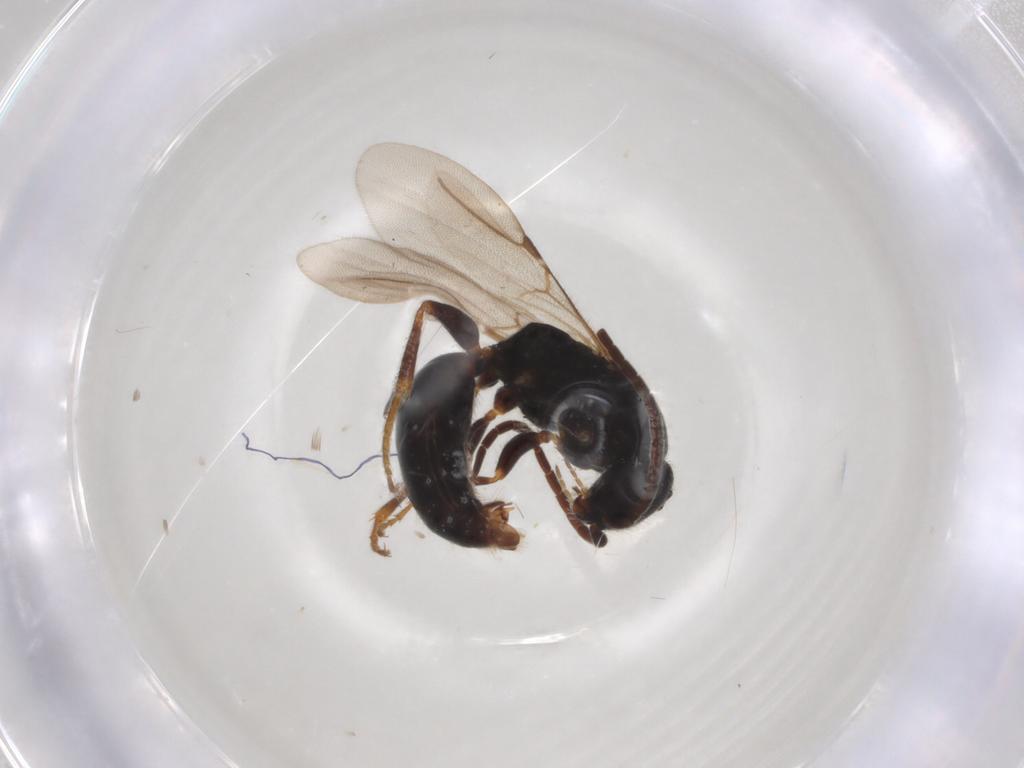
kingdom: Animalia
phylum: Arthropoda
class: Insecta
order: Hymenoptera
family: Bethylidae
